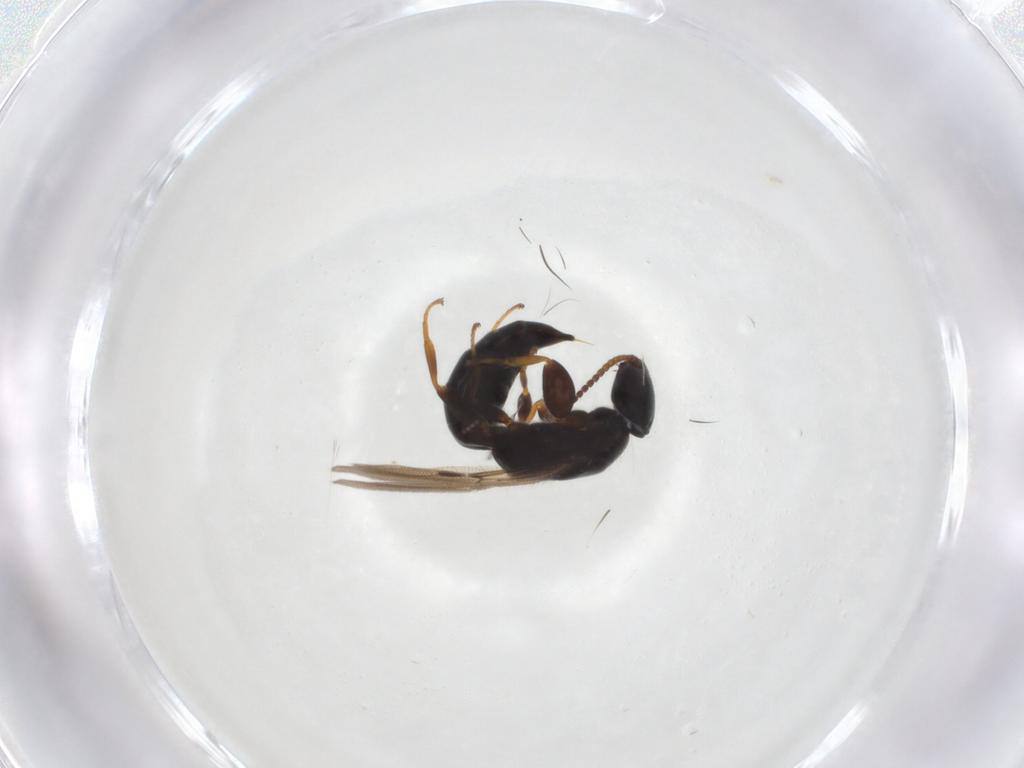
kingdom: Animalia
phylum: Arthropoda
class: Insecta
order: Hymenoptera
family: Bethylidae
